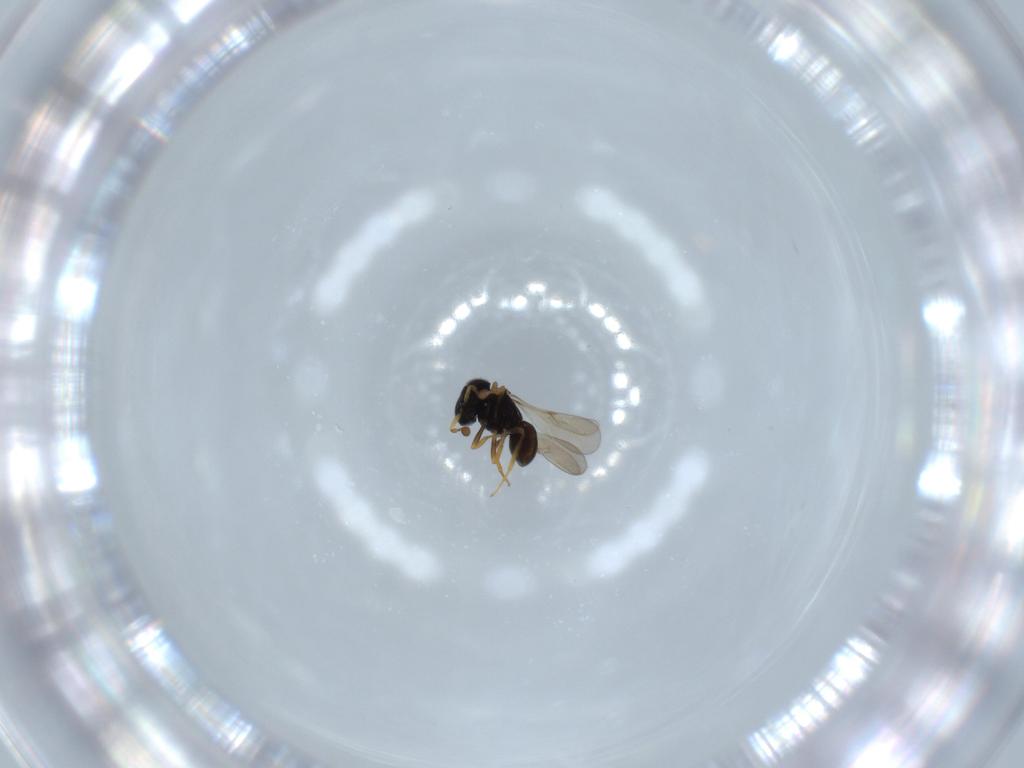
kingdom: Animalia
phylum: Arthropoda
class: Insecta
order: Hymenoptera
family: Scelionidae
